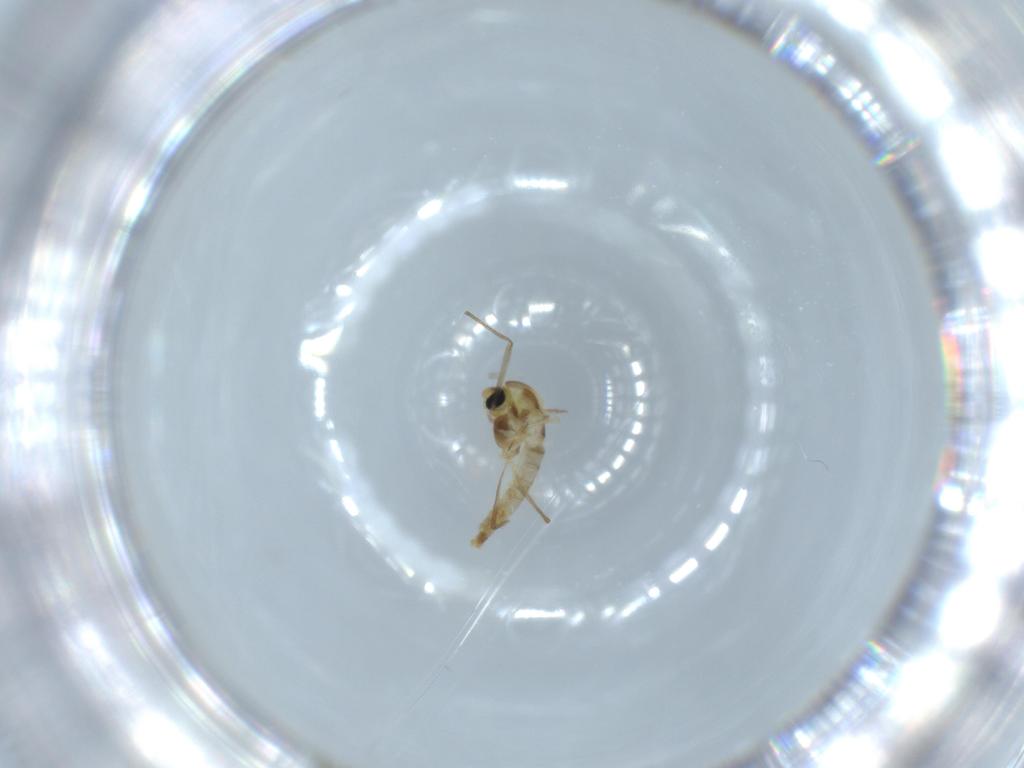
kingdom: Animalia
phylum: Arthropoda
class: Insecta
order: Diptera
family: Chironomidae
